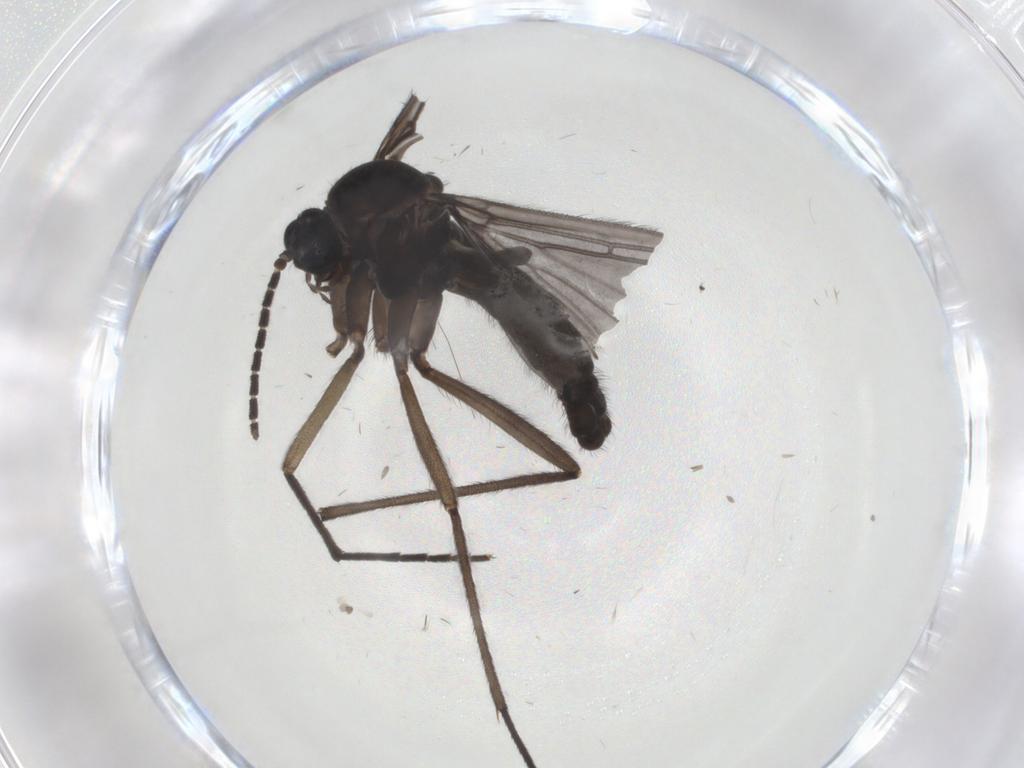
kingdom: Animalia
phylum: Arthropoda
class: Insecta
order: Diptera
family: Sciaridae
